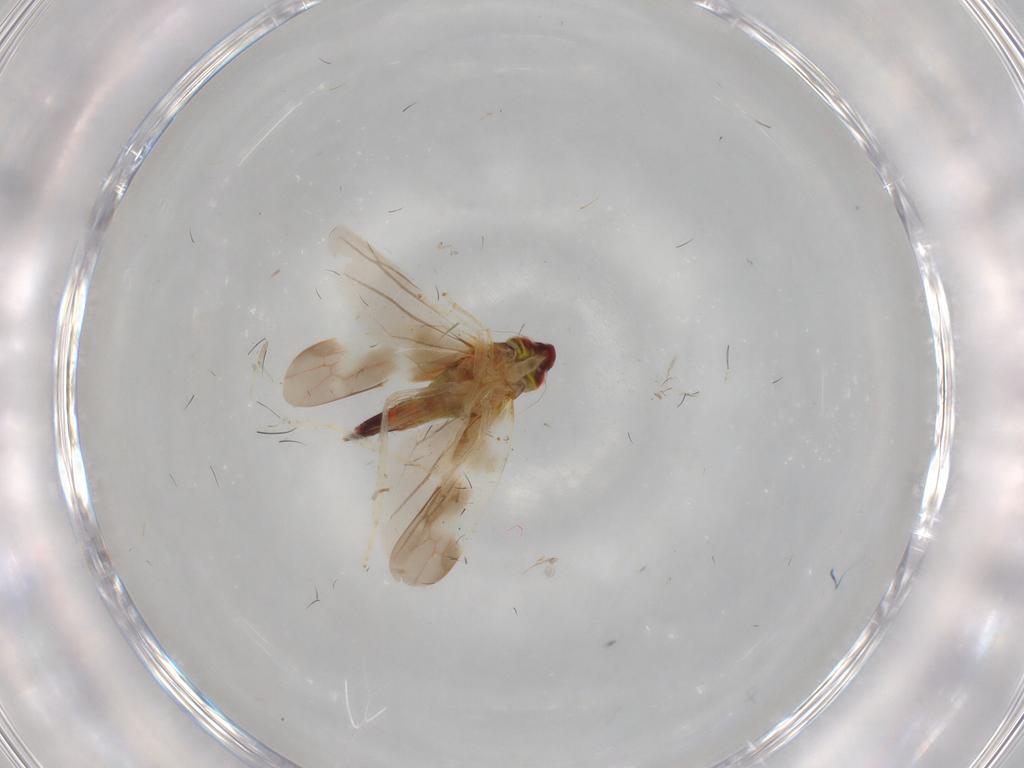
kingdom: Animalia
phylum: Arthropoda
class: Insecta
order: Hemiptera
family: Cicadellidae
